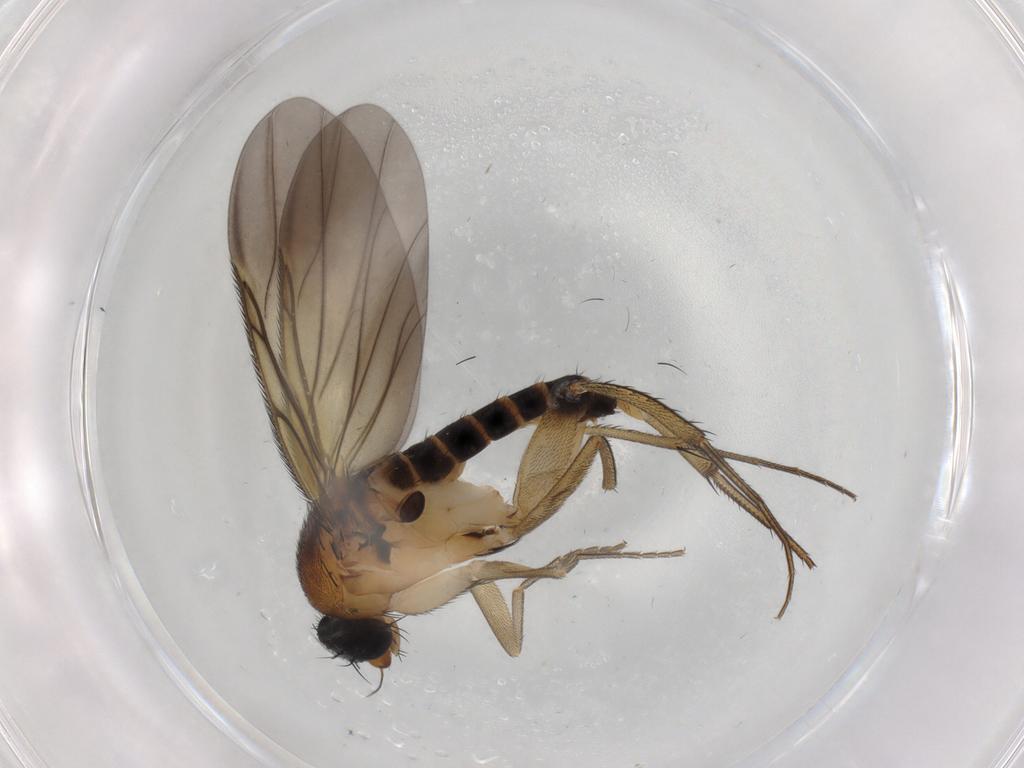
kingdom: Animalia
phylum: Arthropoda
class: Insecta
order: Diptera
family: Phoridae
